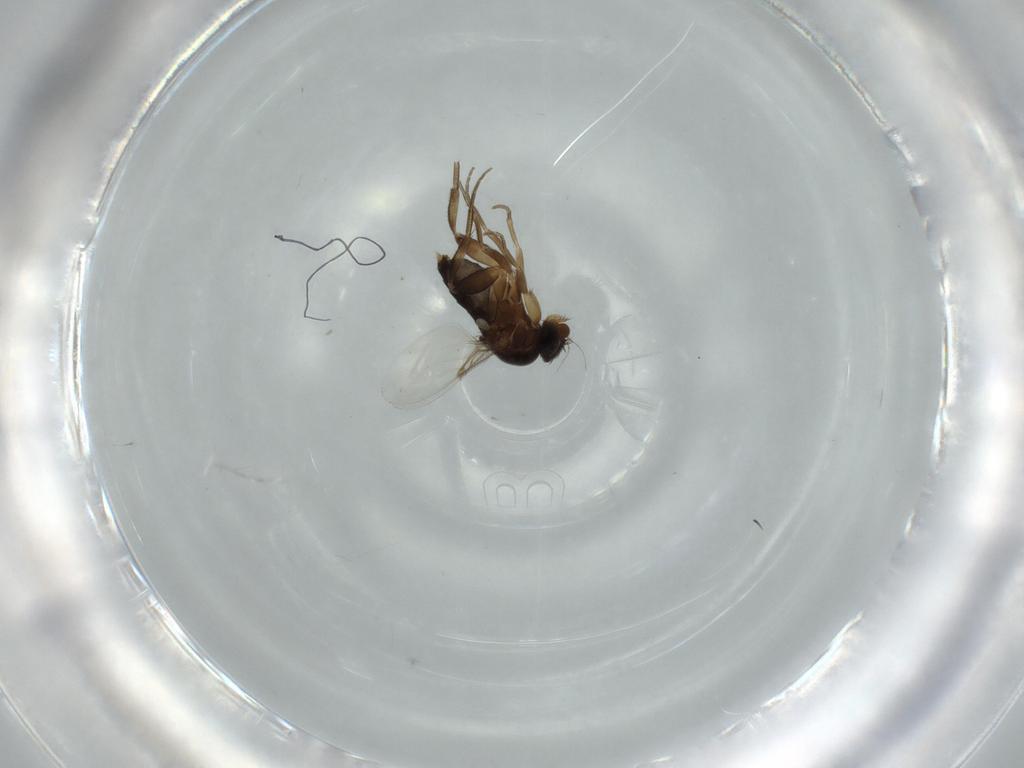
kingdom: Animalia
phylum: Arthropoda
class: Insecta
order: Diptera
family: Phoridae
